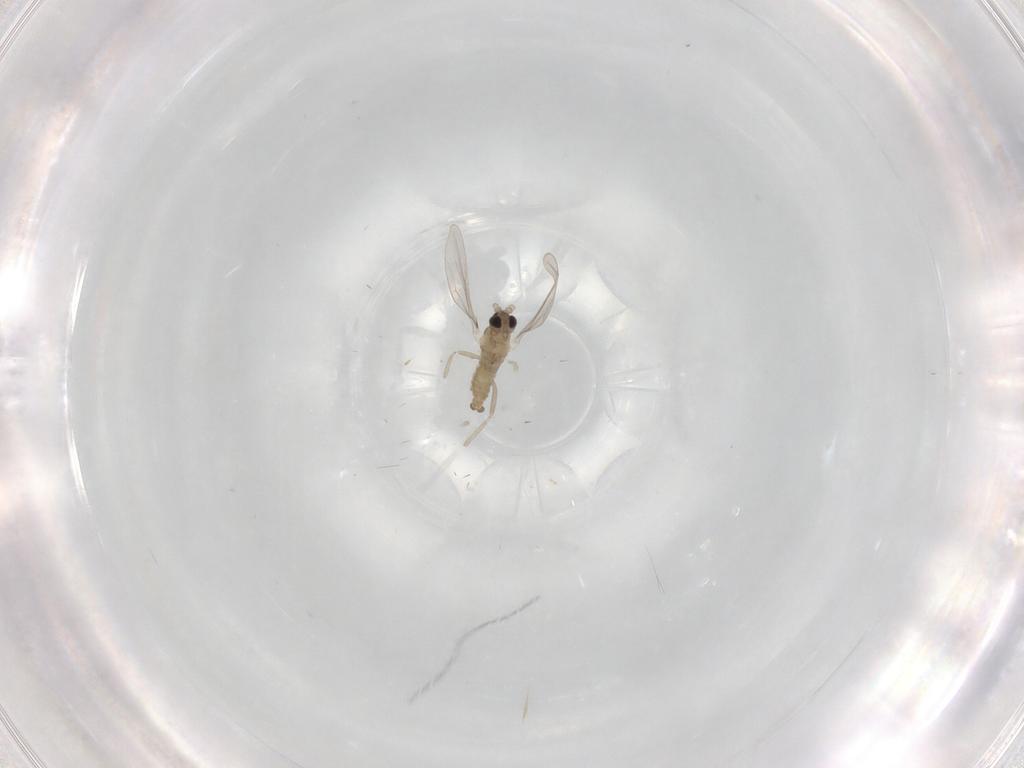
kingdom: Animalia
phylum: Arthropoda
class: Insecta
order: Diptera
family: Cecidomyiidae
